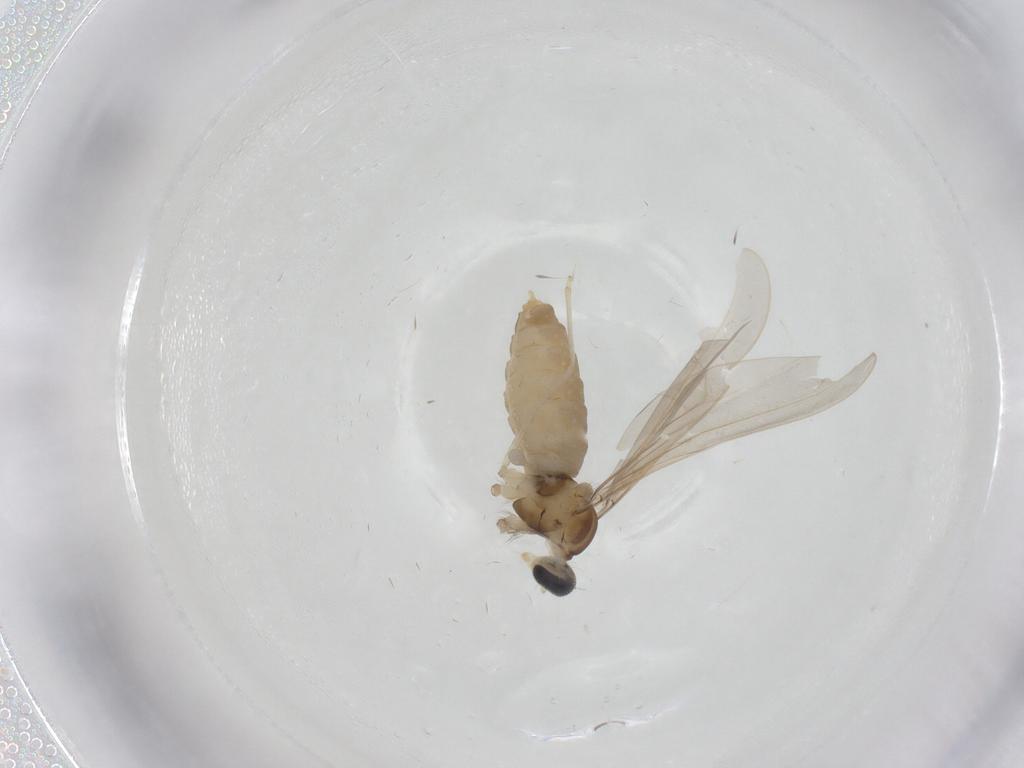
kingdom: Animalia
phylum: Arthropoda
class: Insecta
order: Diptera
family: Cecidomyiidae
